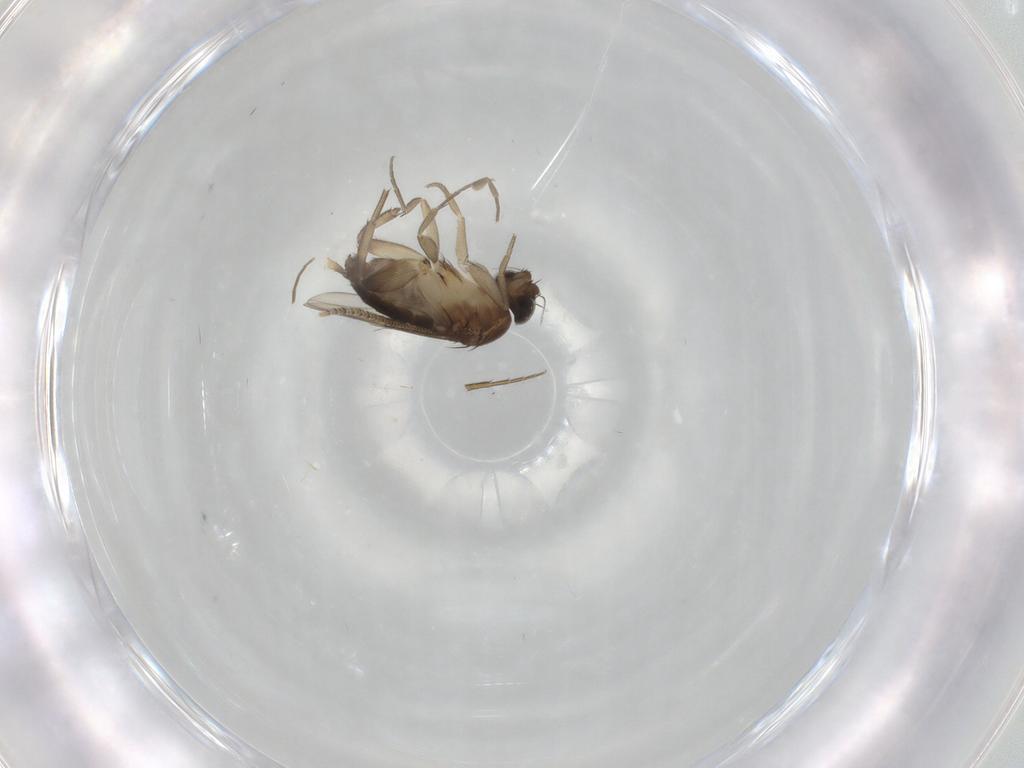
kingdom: Animalia
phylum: Arthropoda
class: Insecta
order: Diptera
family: Phoridae
